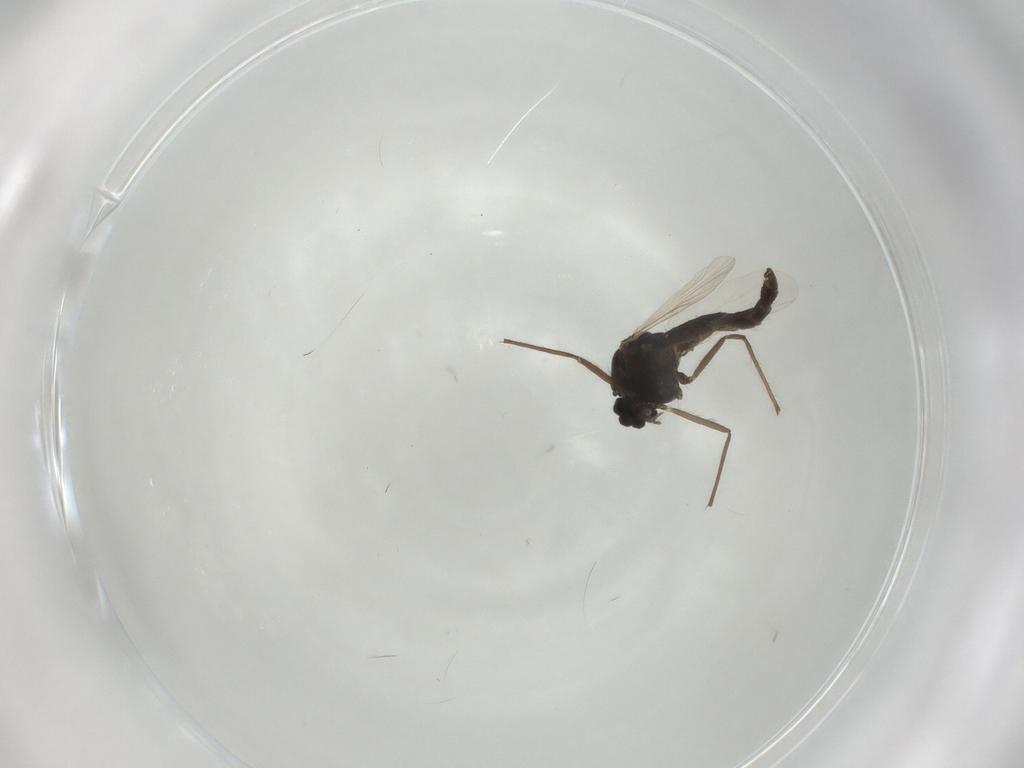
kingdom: Animalia
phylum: Arthropoda
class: Insecta
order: Diptera
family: Chironomidae
